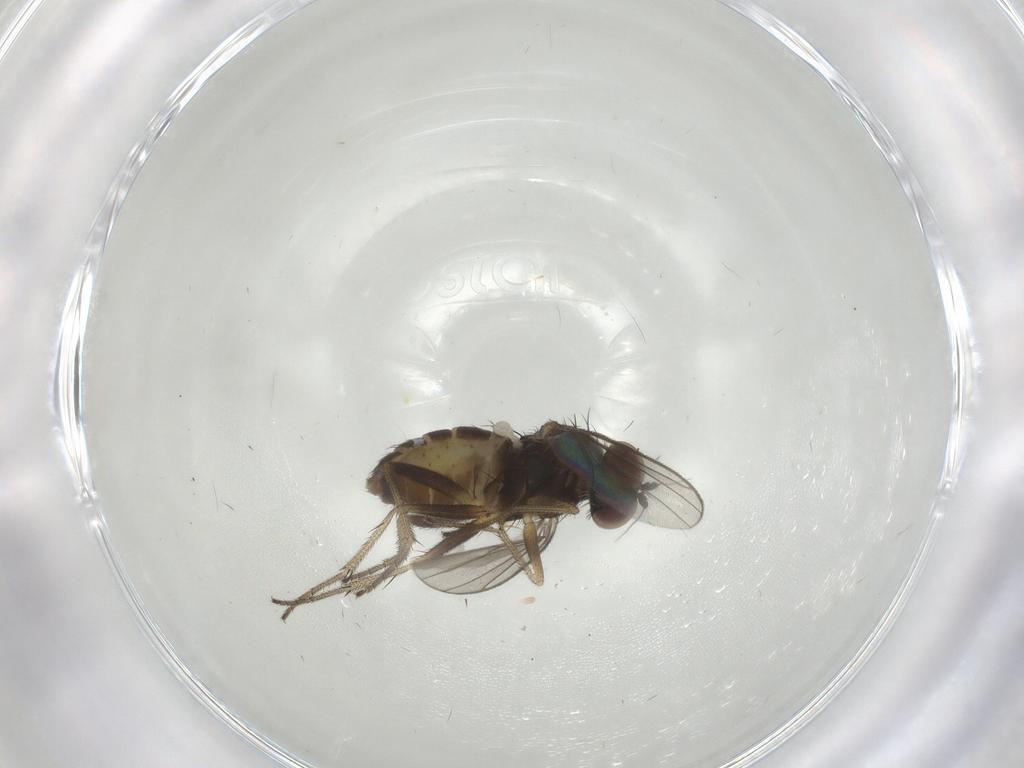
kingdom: Animalia
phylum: Arthropoda
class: Insecta
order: Diptera
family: Dolichopodidae
